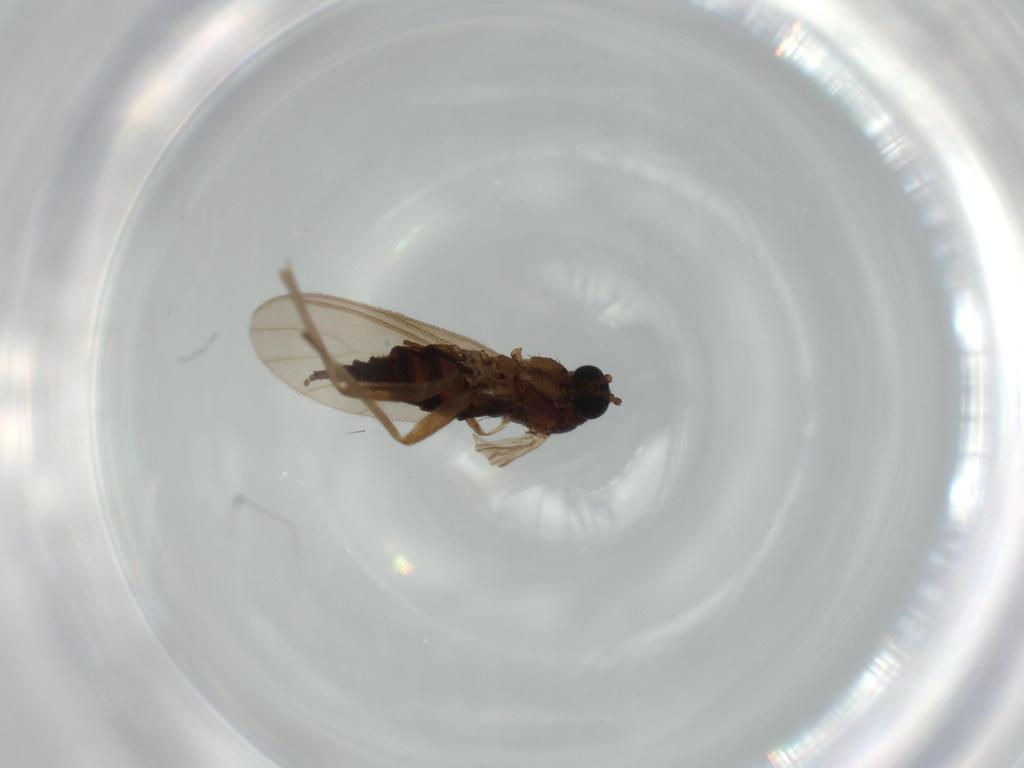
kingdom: Animalia
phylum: Arthropoda
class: Insecta
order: Diptera
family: Sciaridae
